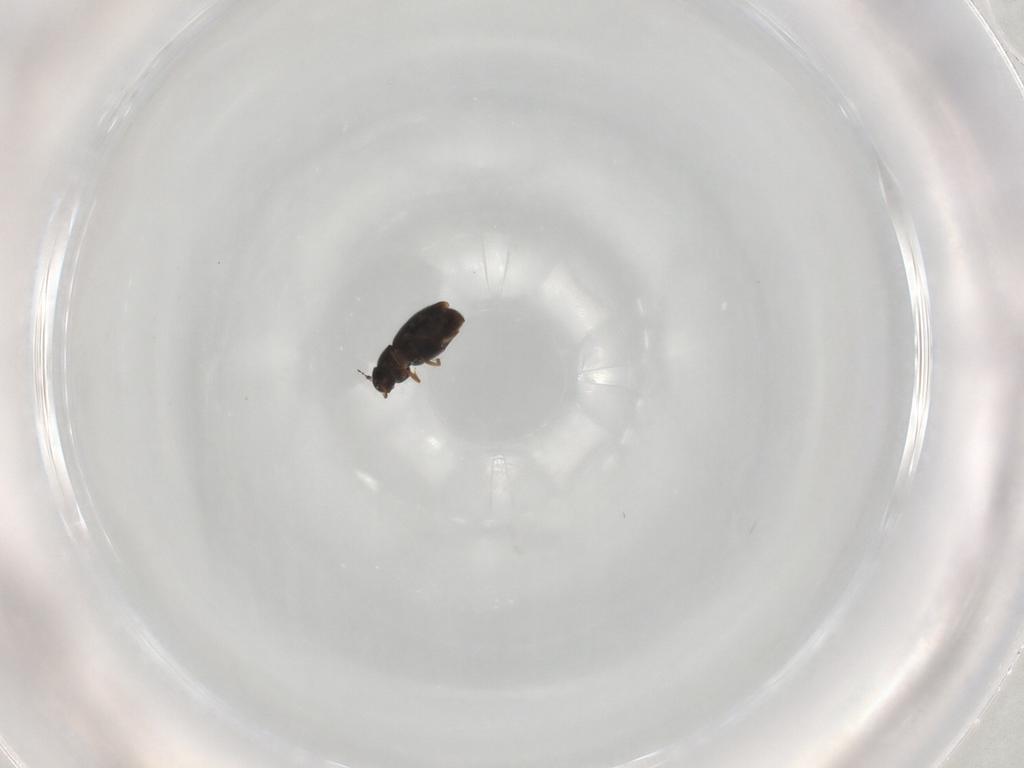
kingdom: Animalia
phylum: Arthropoda
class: Insecta
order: Coleoptera
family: Ptiliidae
